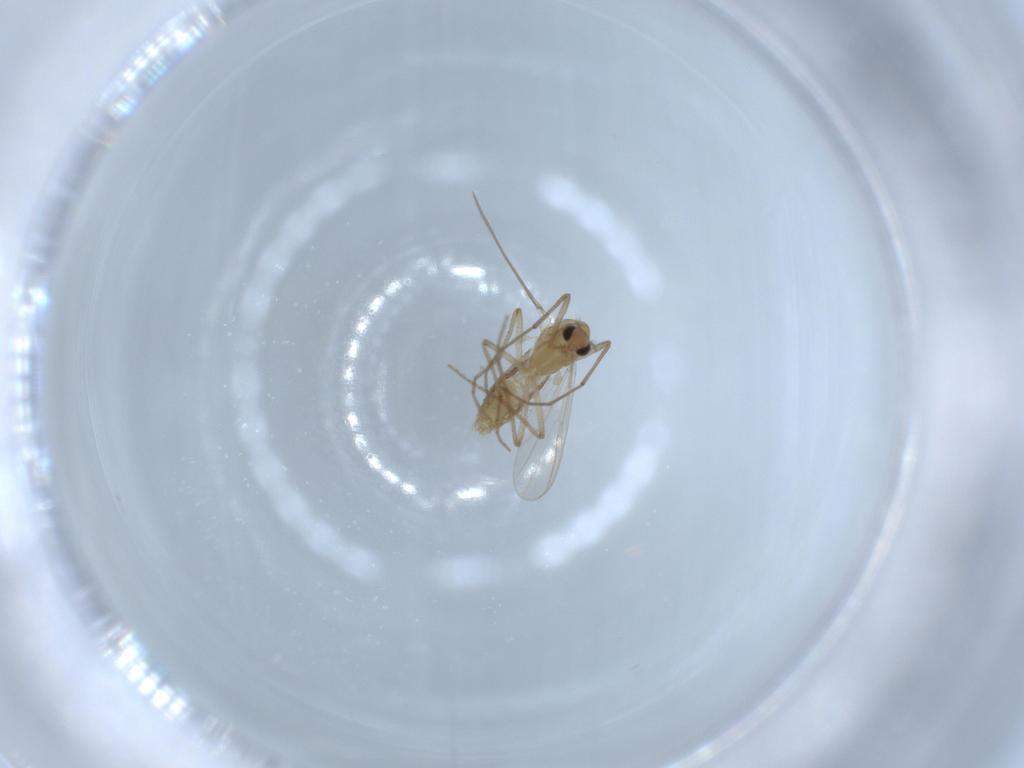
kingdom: Animalia
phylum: Arthropoda
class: Insecta
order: Diptera
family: Chironomidae
